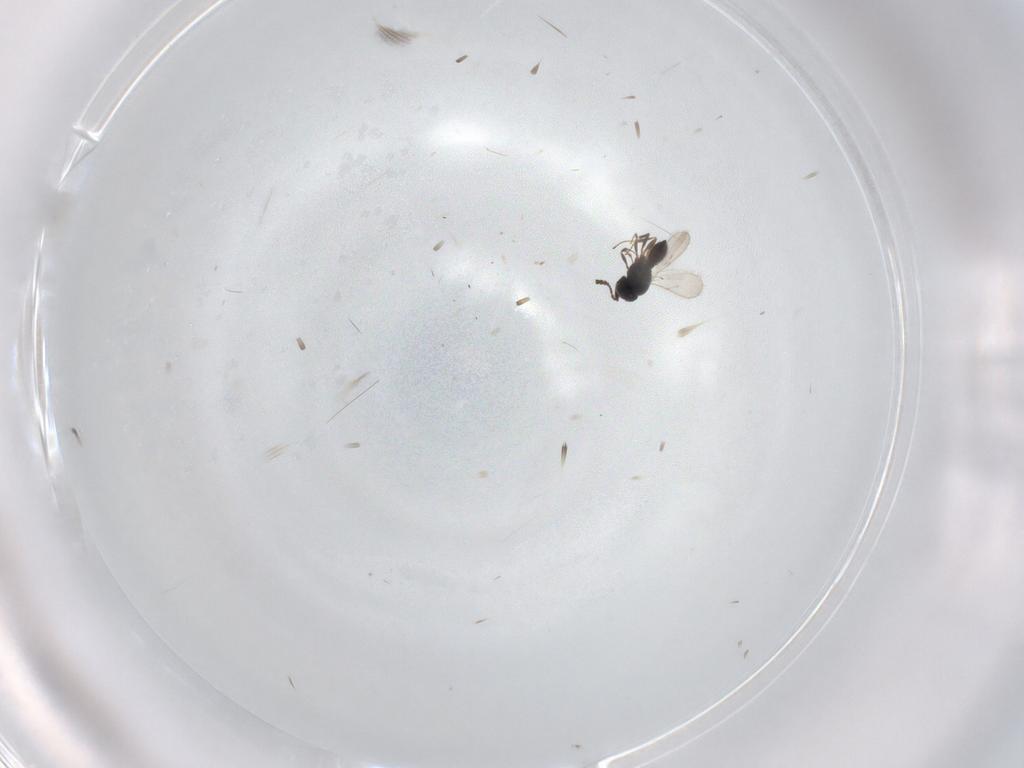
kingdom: Animalia
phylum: Arthropoda
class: Insecta
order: Hymenoptera
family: Scelionidae
